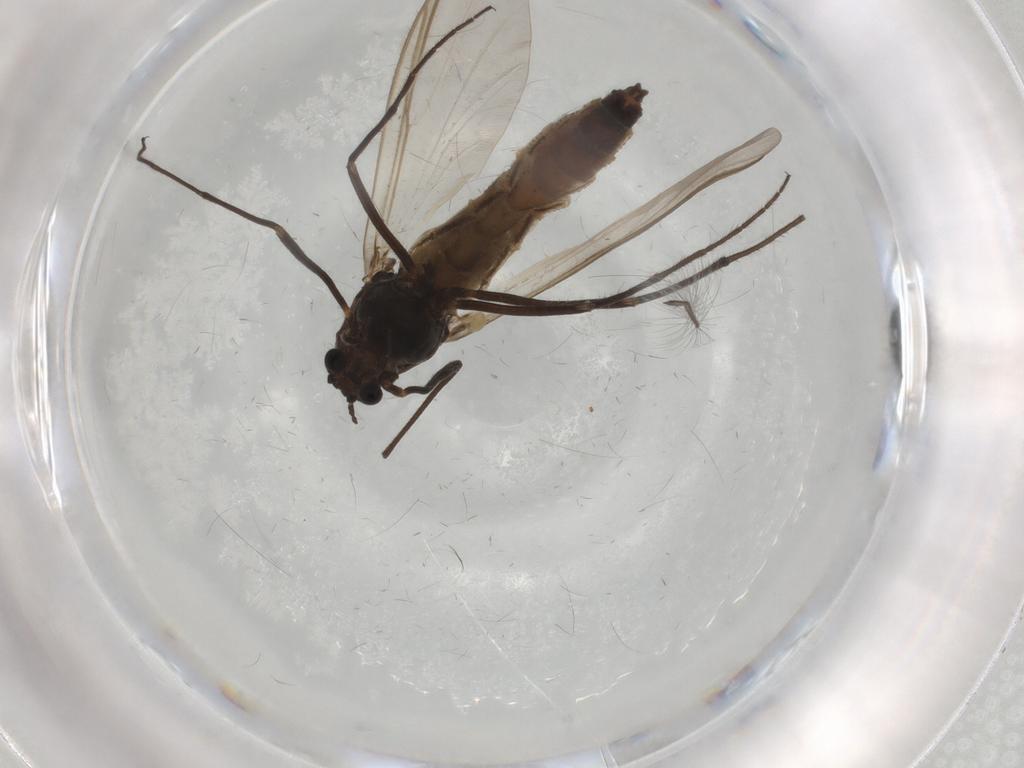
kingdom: Animalia
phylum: Arthropoda
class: Insecta
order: Diptera
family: Chironomidae
